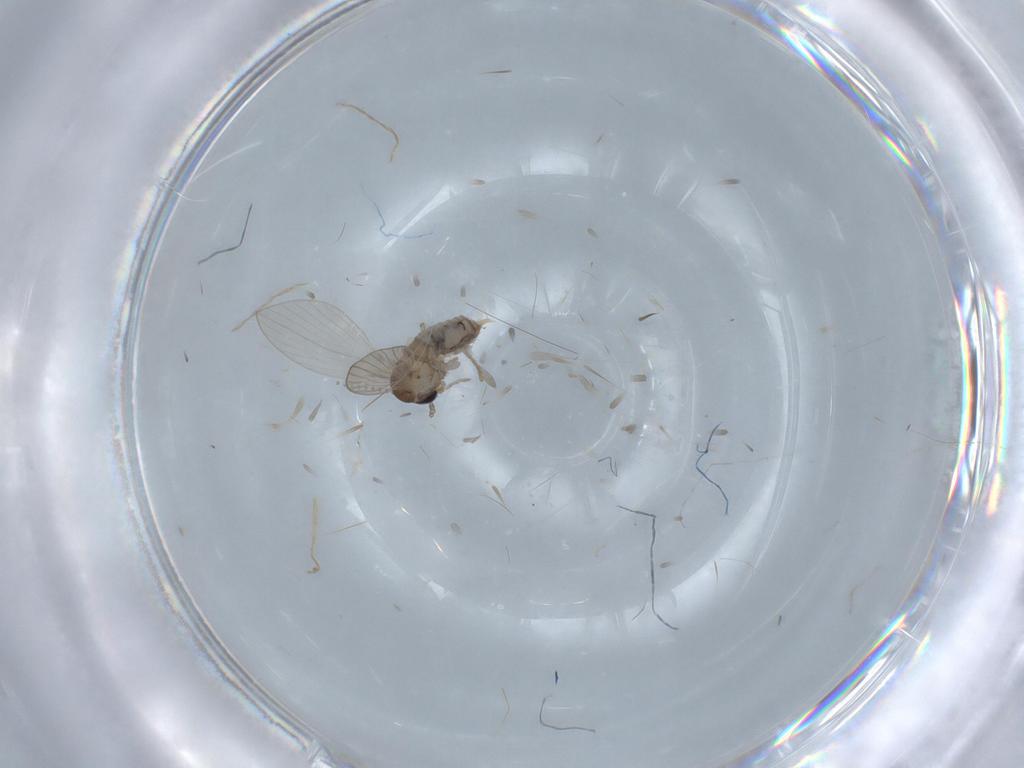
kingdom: Animalia
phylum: Arthropoda
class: Insecta
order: Diptera
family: Psychodidae
